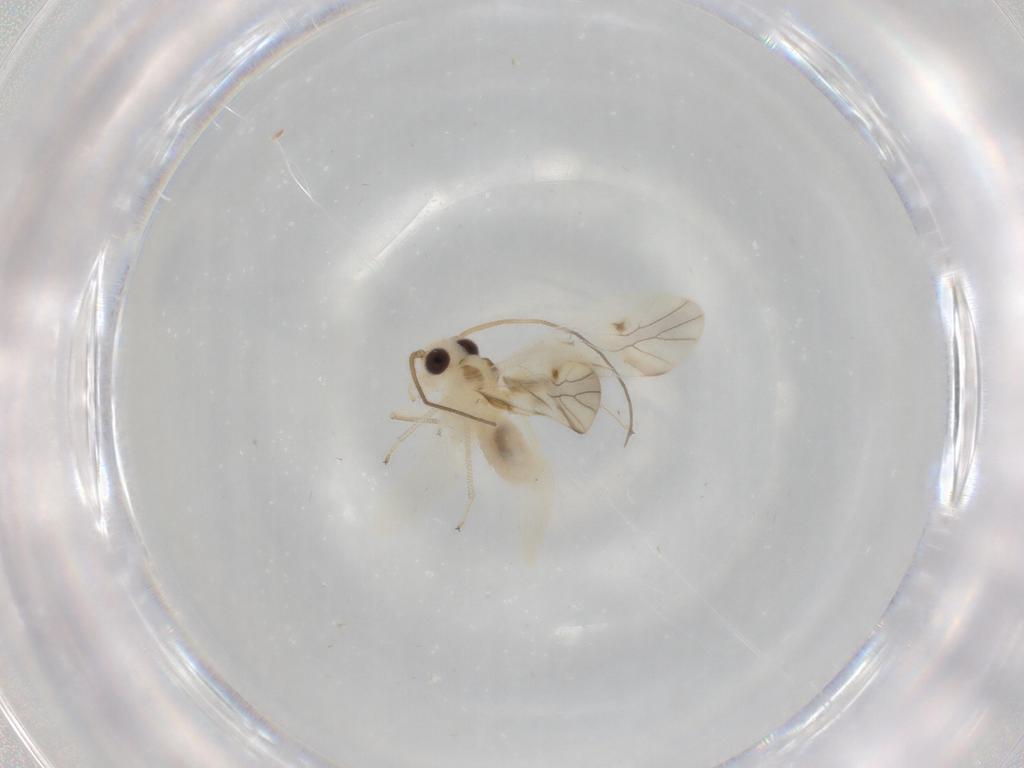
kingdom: Animalia
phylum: Arthropoda
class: Insecta
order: Psocodea
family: Caeciliusidae
